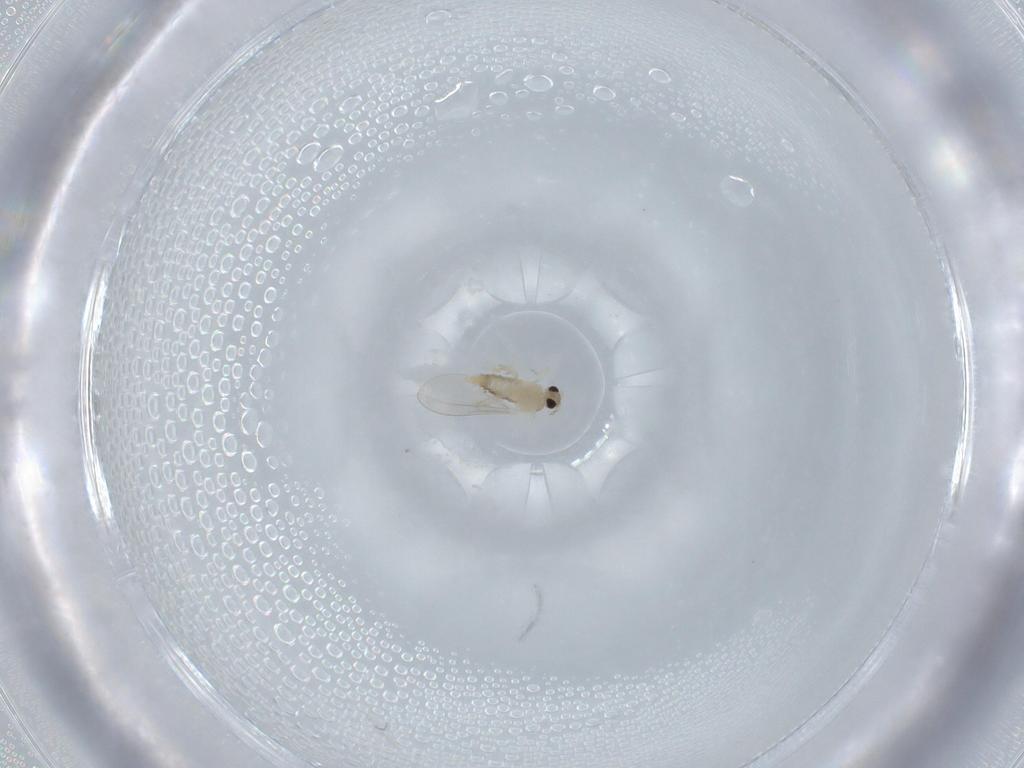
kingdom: Animalia
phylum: Arthropoda
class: Insecta
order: Diptera
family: Cecidomyiidae
